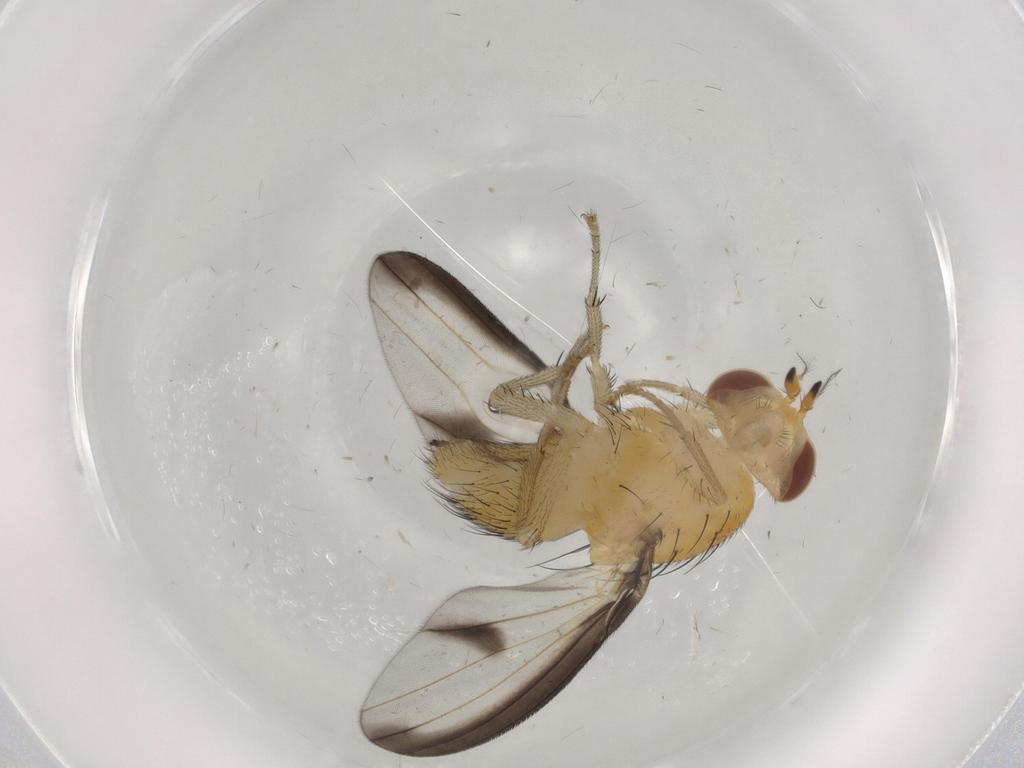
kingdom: Animalia
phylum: Arthropoda
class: Insecta
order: Diptera
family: Lauxaniidae
